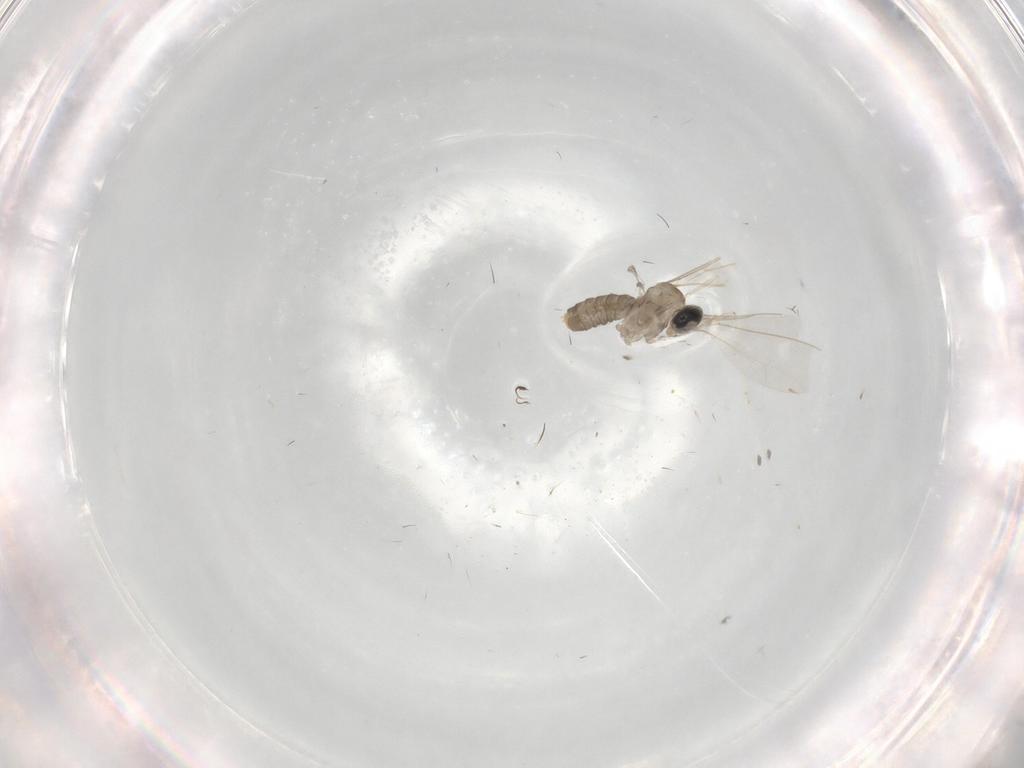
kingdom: Animalia
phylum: Arthropoda
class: Insecta
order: Diptera
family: Cecidomyiidae
